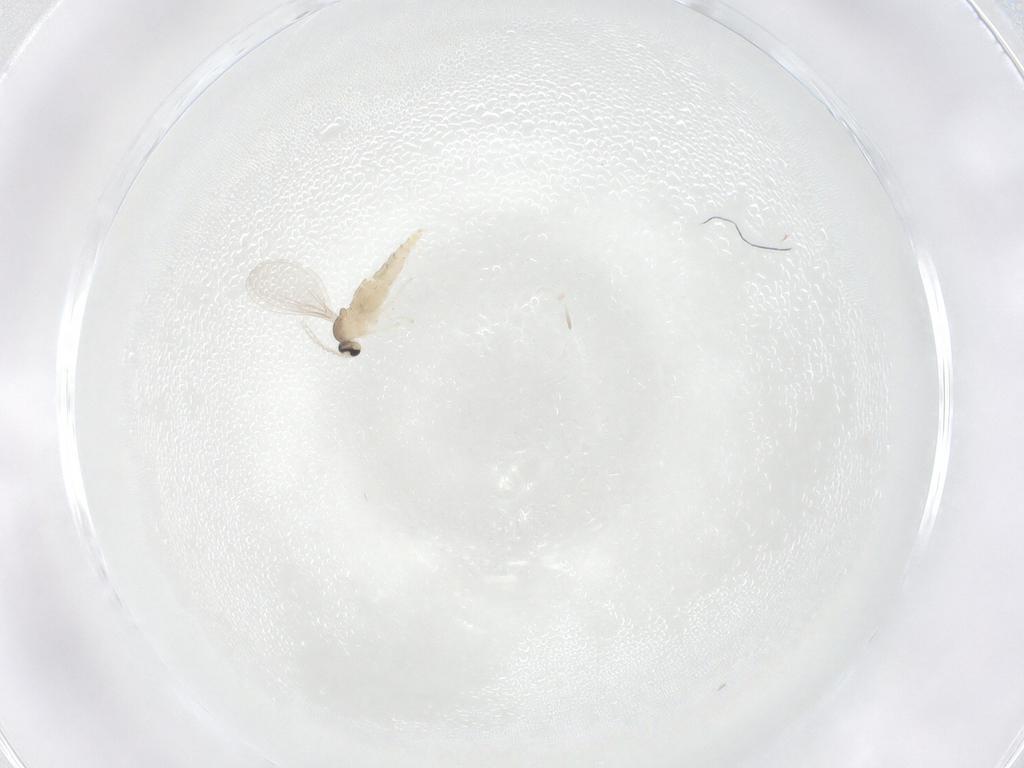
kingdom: Animalia
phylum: Arthropoda
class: Insecta
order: Diptera
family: Cecidomyiidae
